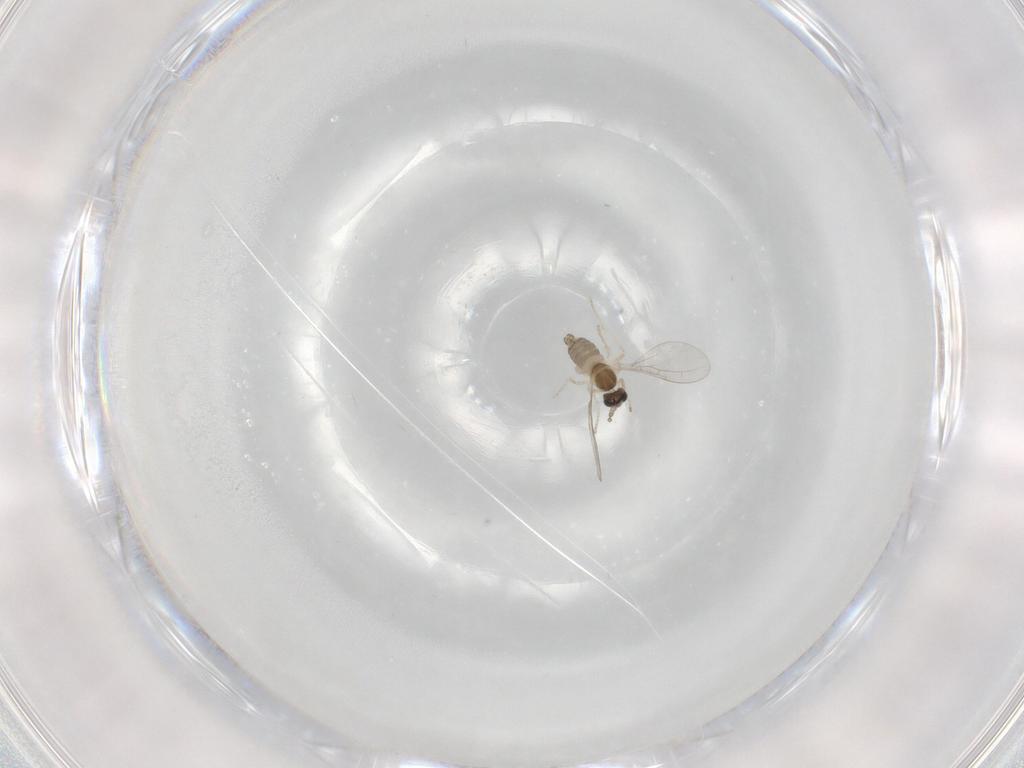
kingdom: Animalia
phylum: Arthropoda
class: Insecta
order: Diptera
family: Cecidomyiidae
